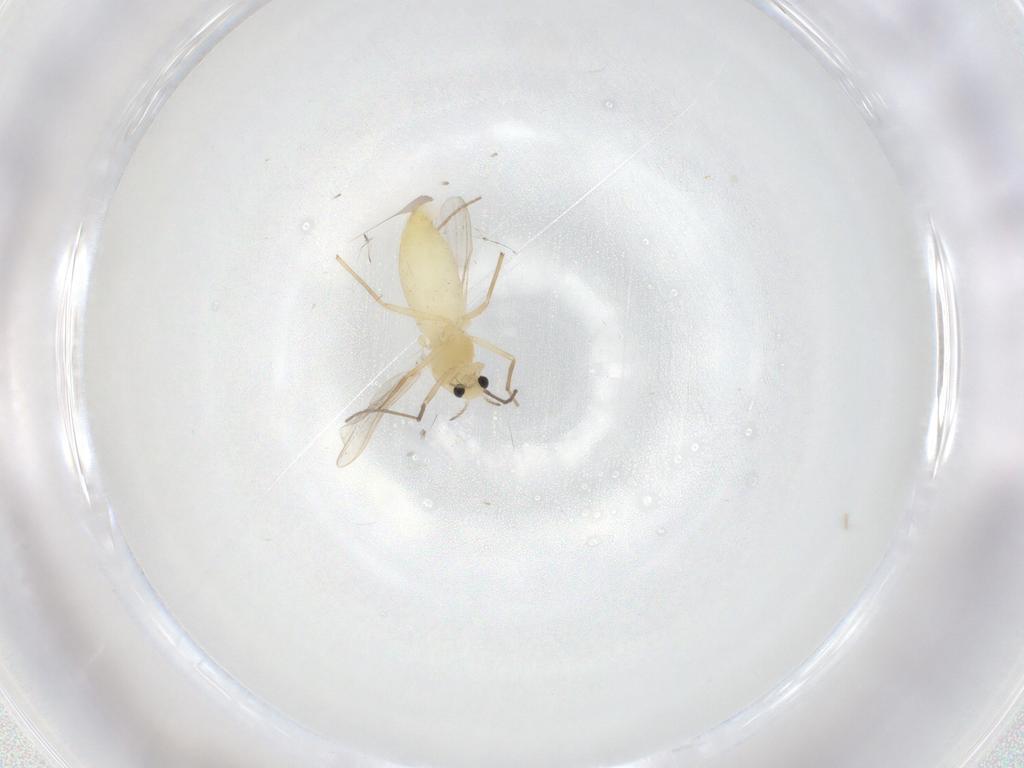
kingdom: Animalia
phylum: Arthropoda
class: Insecta
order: Diptera
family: Chironomidae
